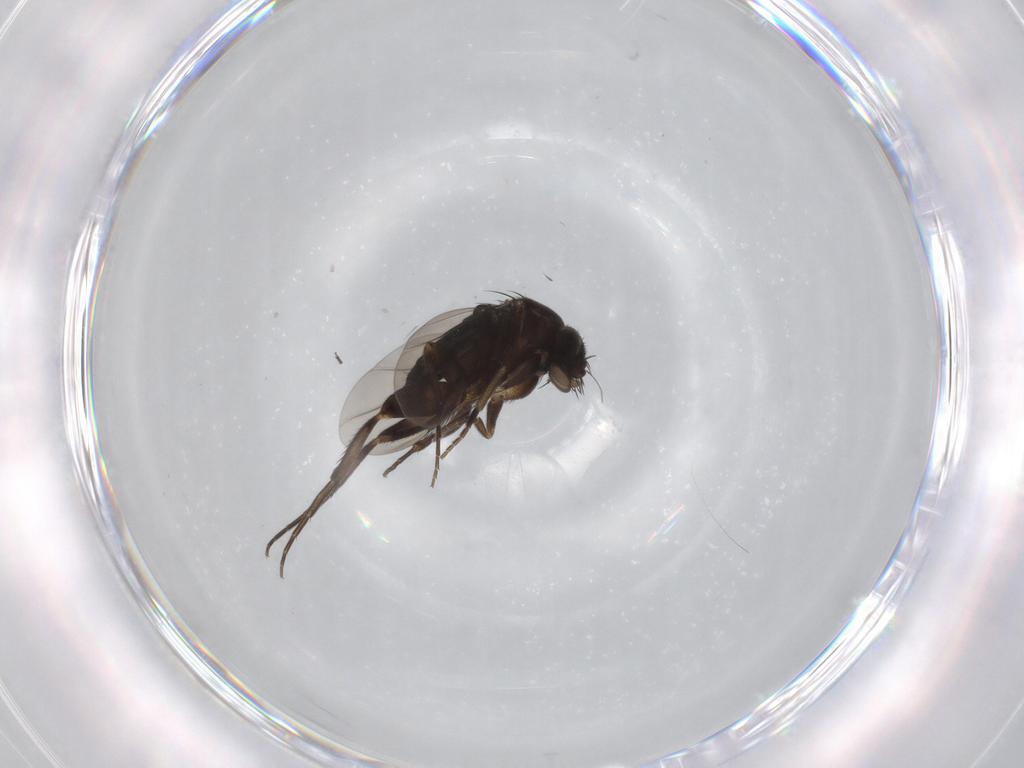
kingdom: Animalia
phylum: Arthropoda
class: Insecta
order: Diptera
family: Phoridae
